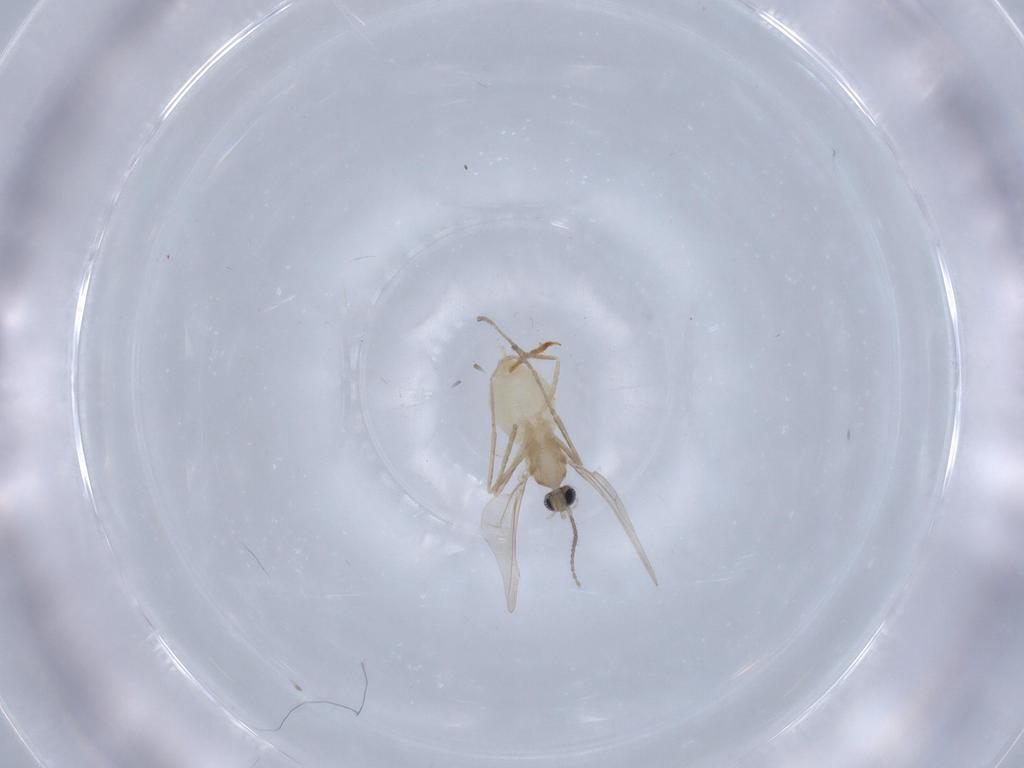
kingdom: Animalia
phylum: Arthropoda
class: Insecta
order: Diptera
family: Cecidomyiidae
